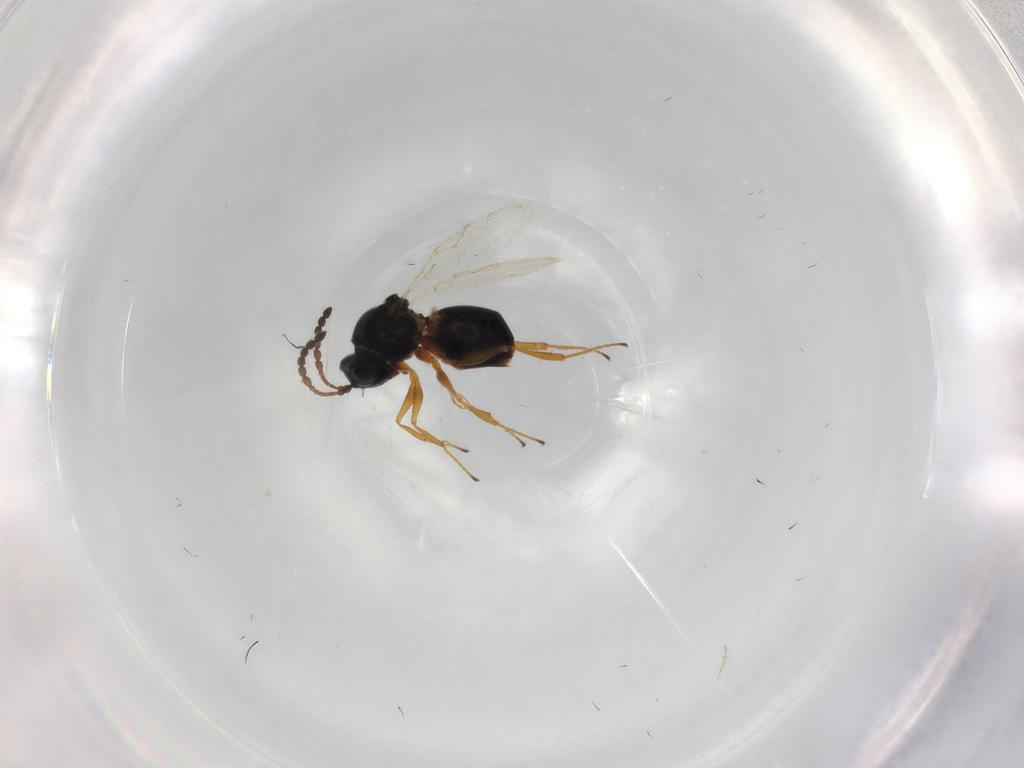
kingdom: Animalia
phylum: Arthropoda
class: Insecta
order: Hymenoptera
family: Figitidae
